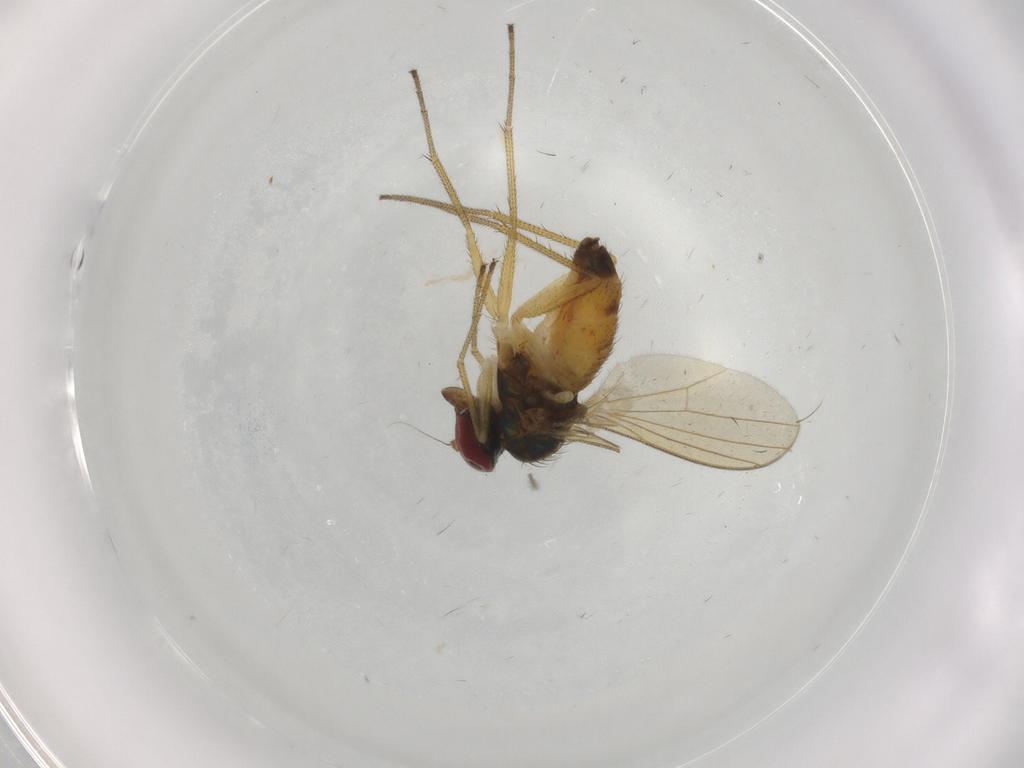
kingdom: Animalia
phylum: Arthropoda
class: Insecta
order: Diptera
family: Dolichopodidae
